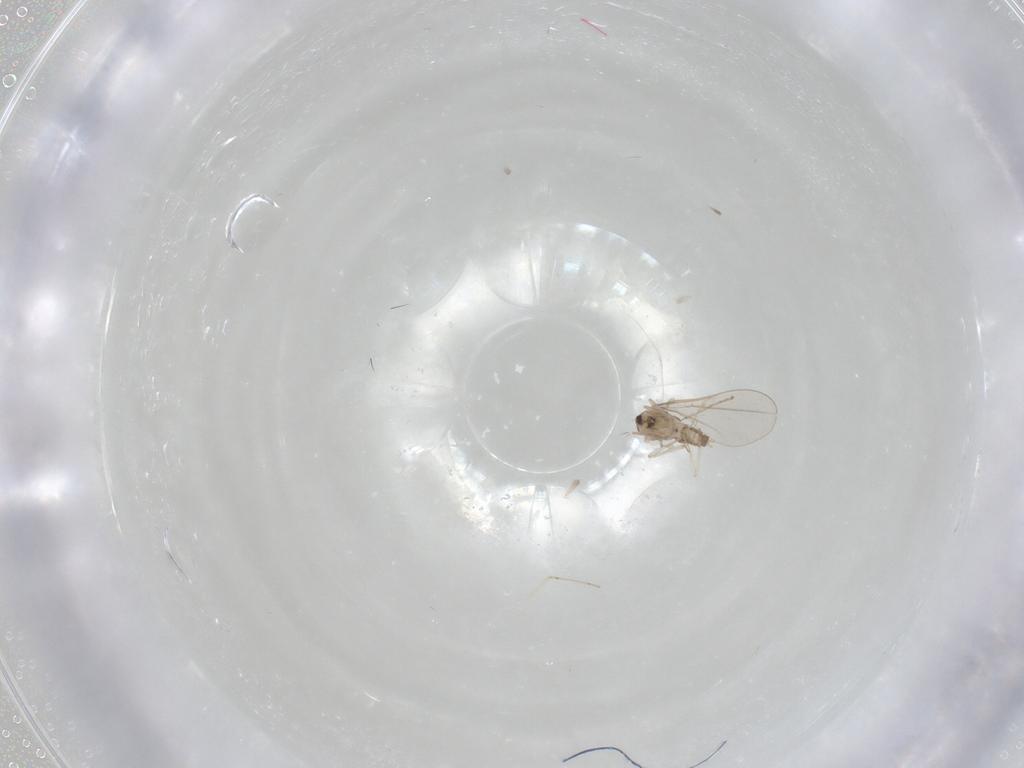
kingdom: Animalia
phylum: Arthropoda
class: Insecta
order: Diptera
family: Cecidomyiidae
